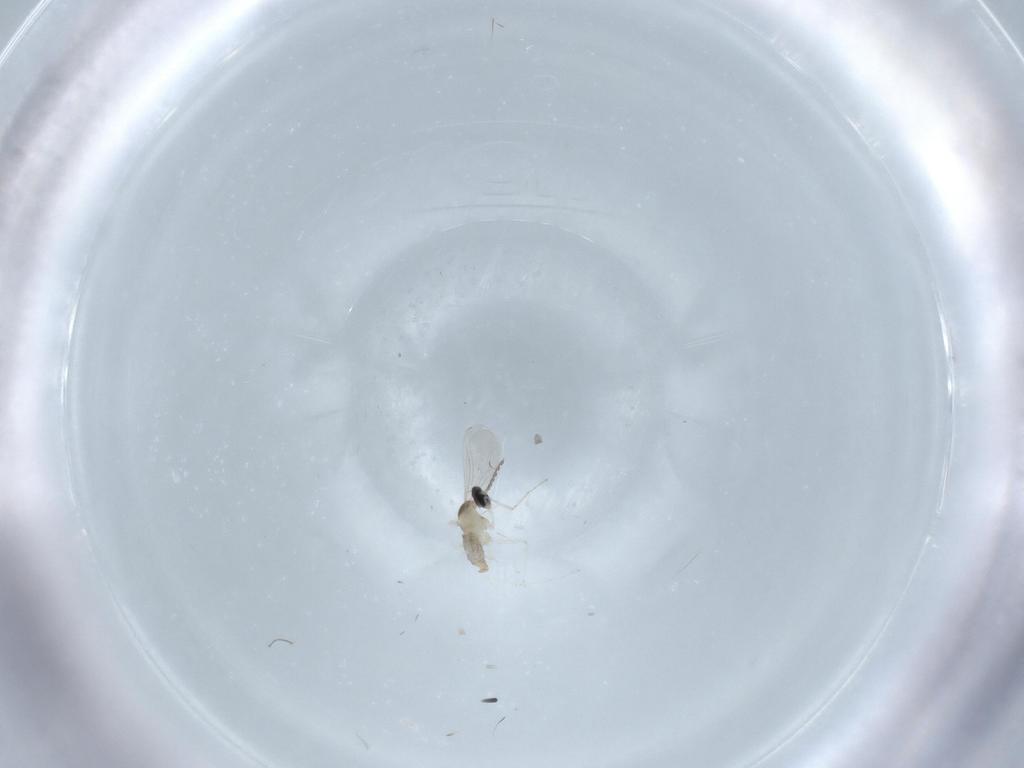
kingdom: Animalia
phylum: Arthropoda
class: Insecta
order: Diptera
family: Cecidomyiidae
